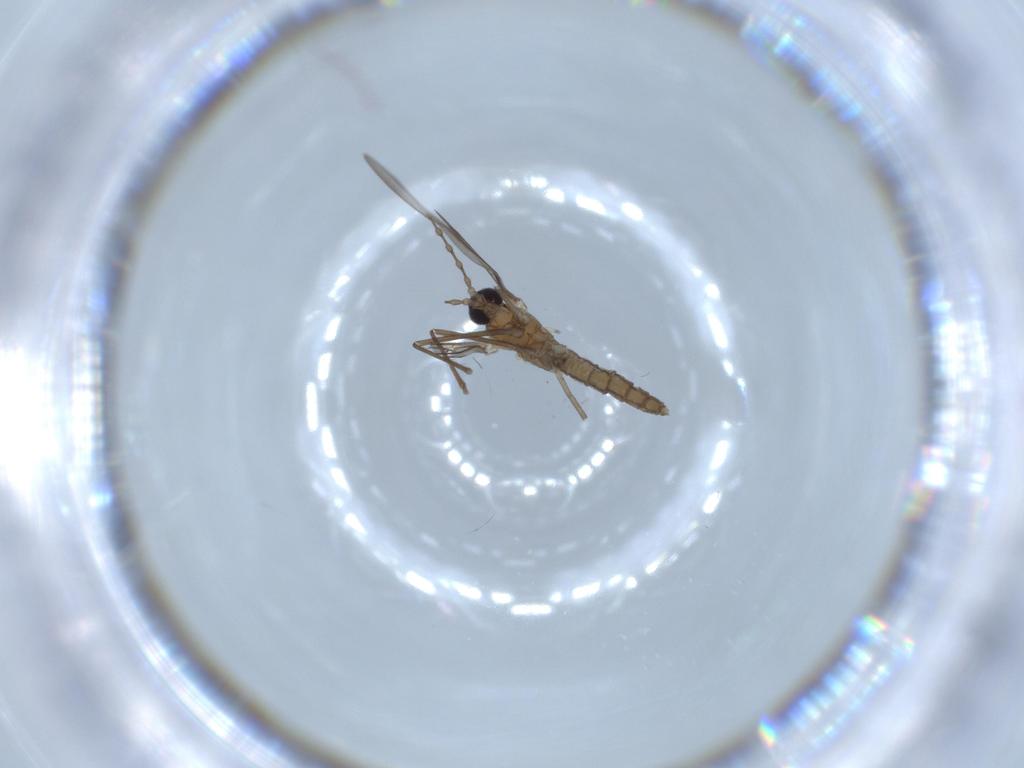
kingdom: Animalia
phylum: Arthropoda
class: Insecta
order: Diptera
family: Cecidomyiidae
